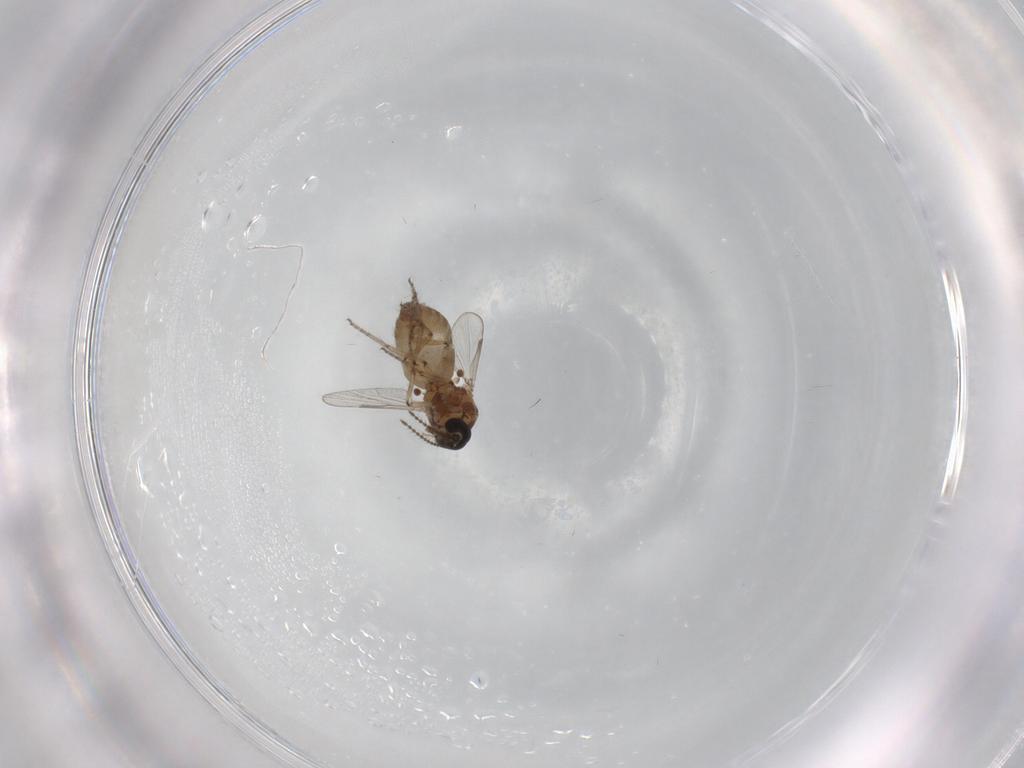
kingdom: Animalia
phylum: Arthropoda
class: Insecta
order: Diptera
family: Ceratopogonidae
